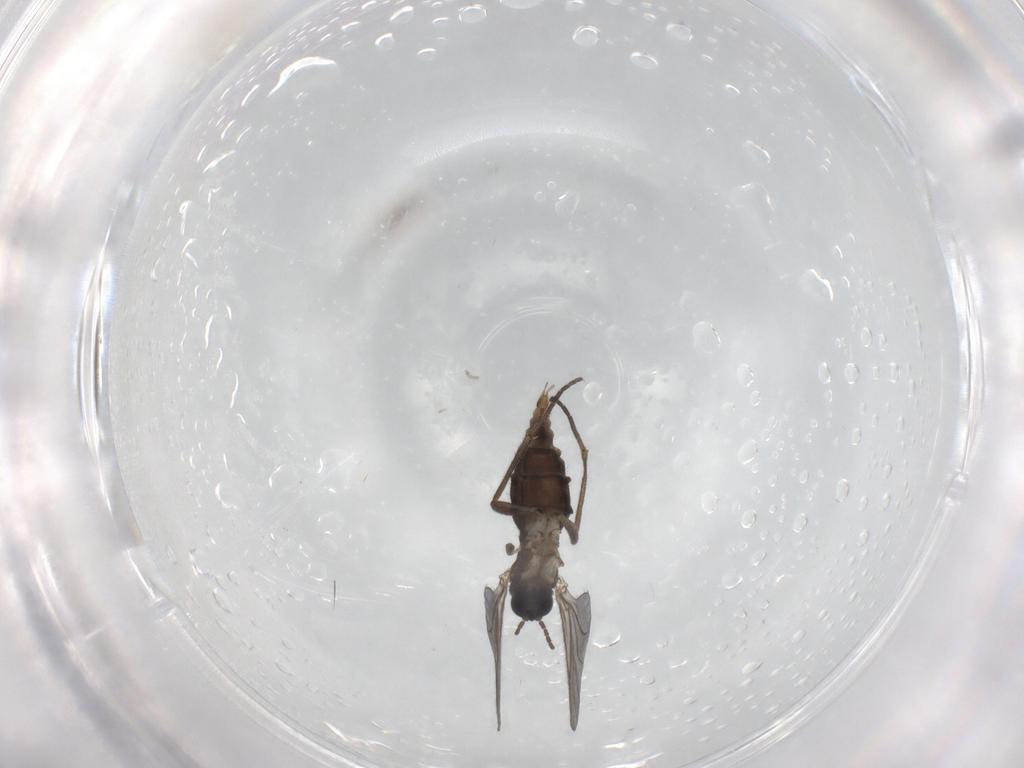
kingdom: Animalia
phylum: Arthropoda
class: Insecta
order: Diptera
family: Sciaridae
